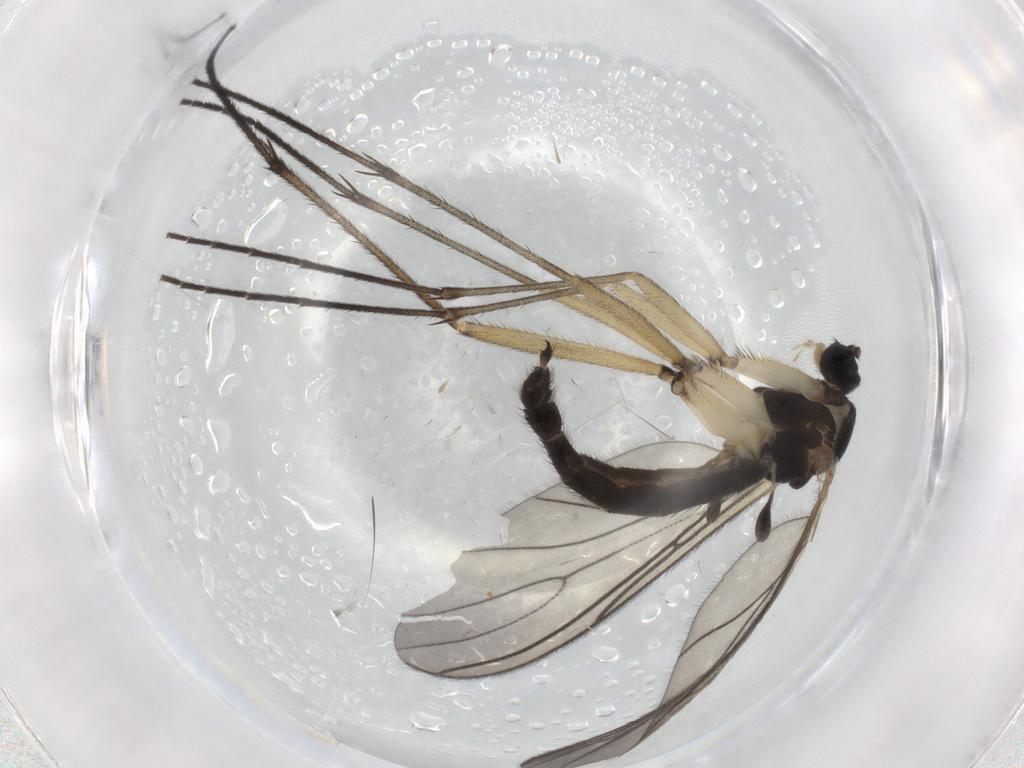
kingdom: Animalia
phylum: Arthropoda
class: Insecta
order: Diptera
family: Sciaridae
